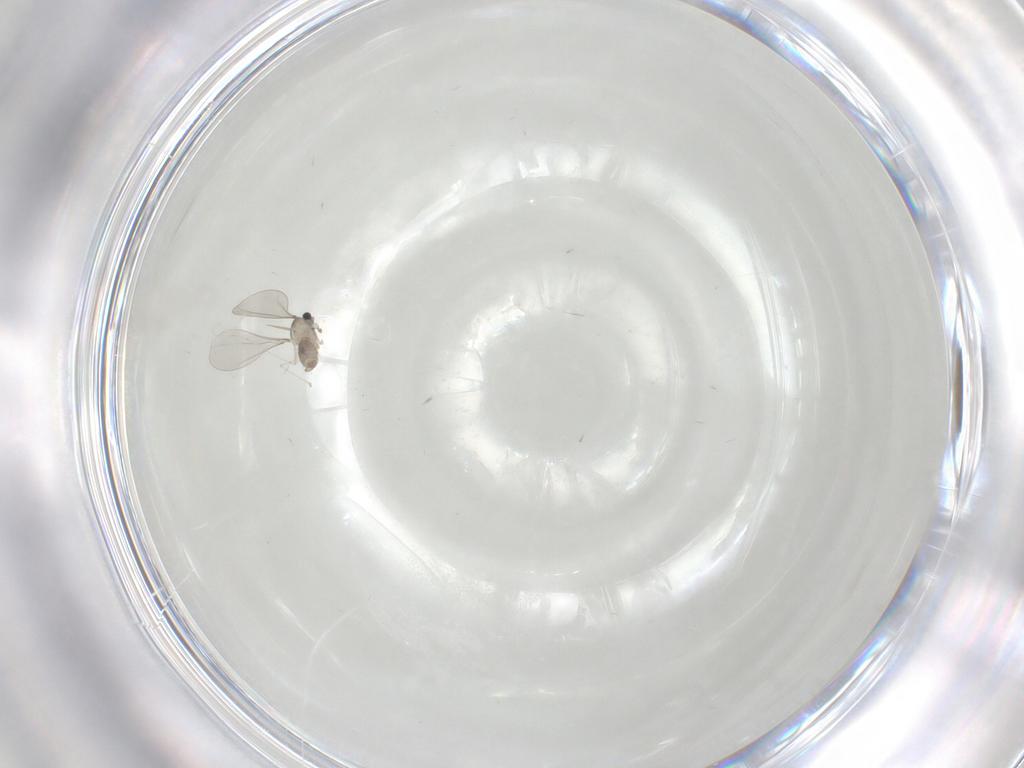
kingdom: Animalia
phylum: Arthropoda
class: Insecta
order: Diptera
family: Cecidomyiidae
